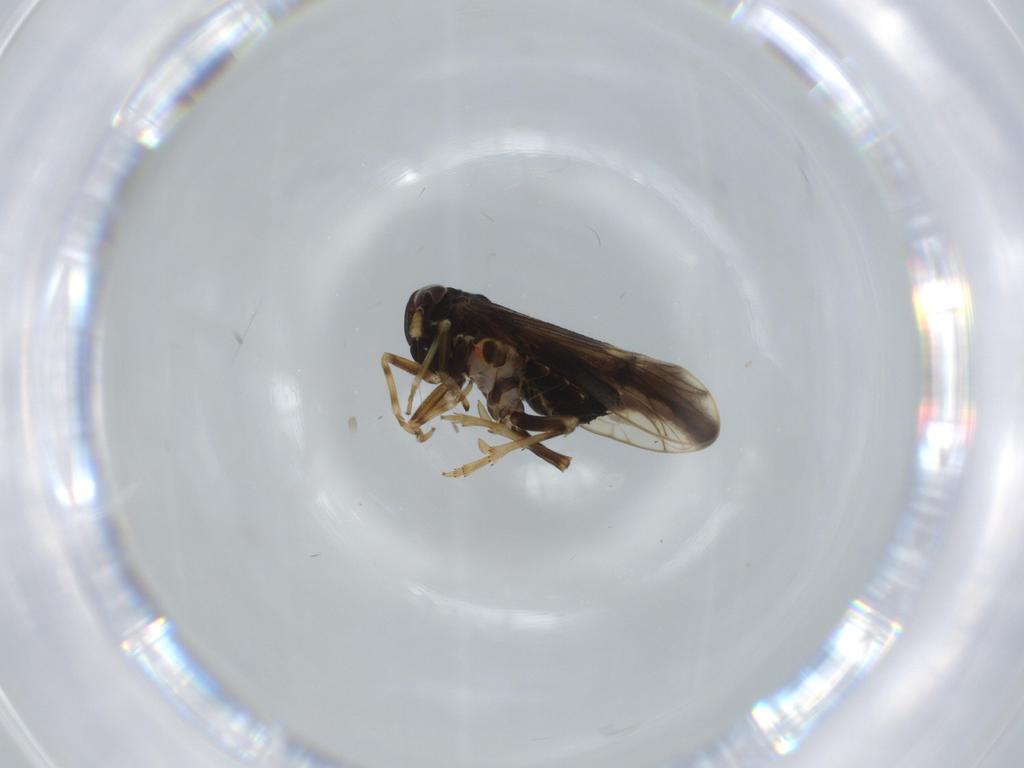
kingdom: Animalia
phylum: Arthropoda
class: Insecta
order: Hemiptera
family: Delphacidae
